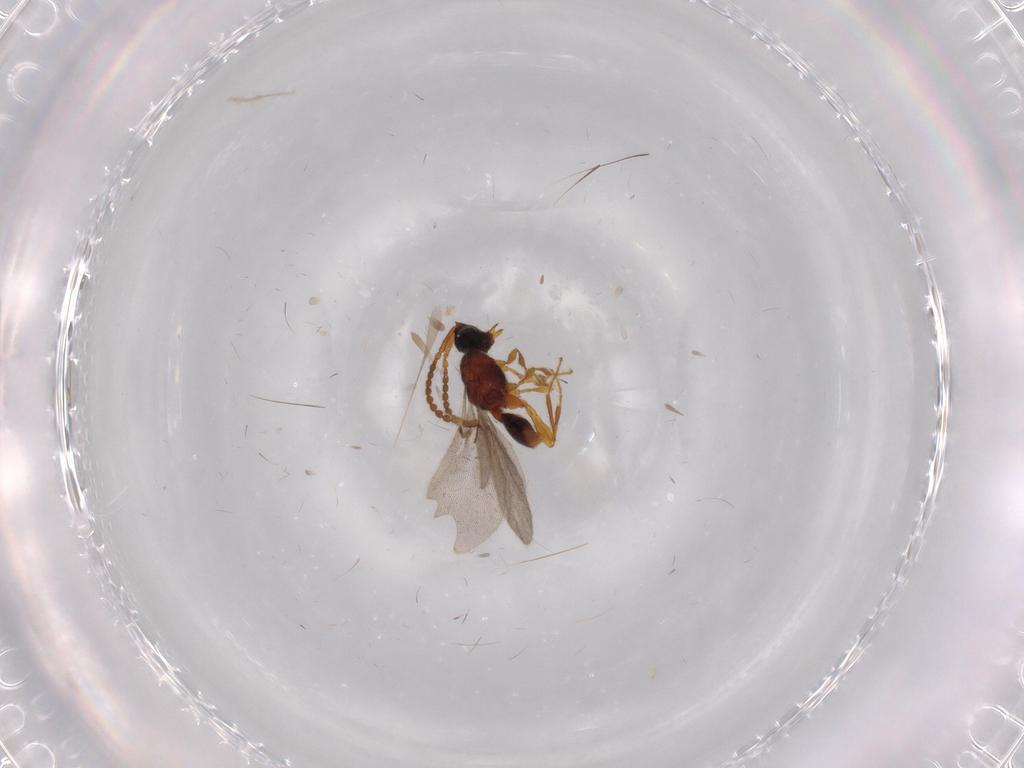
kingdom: Animalia
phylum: Arthropoda
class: Insecta
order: Hymenoptera
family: Diapriidae
